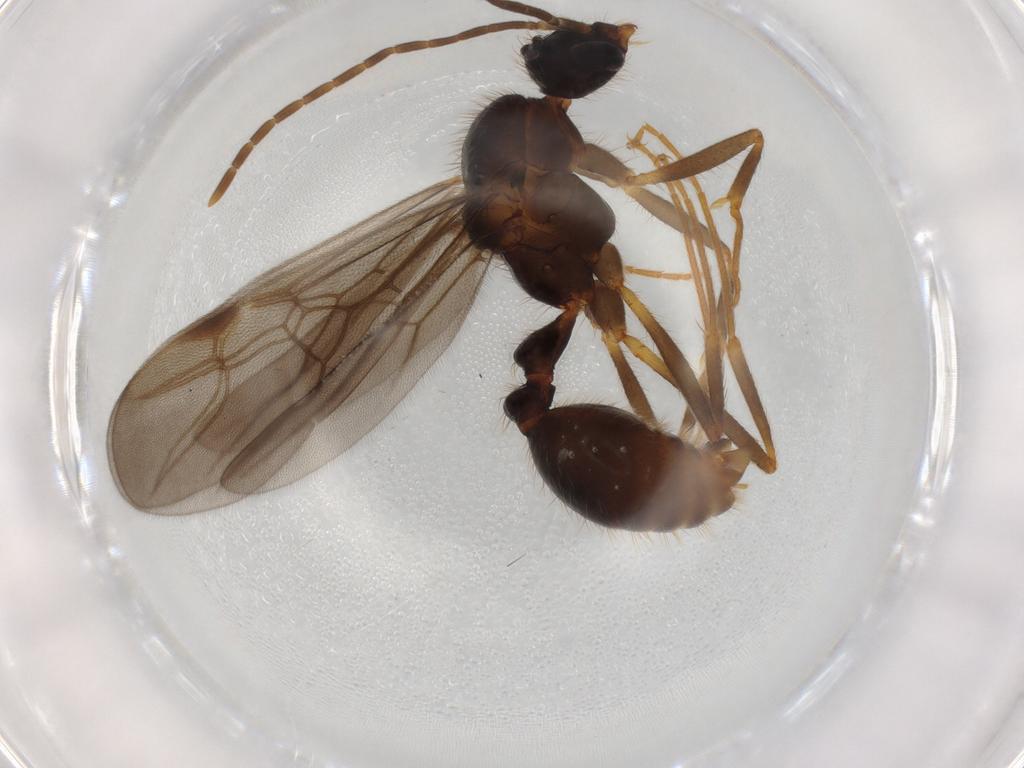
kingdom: Animalia
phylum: Arthropoda
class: Insecta
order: Hymenoptera
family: Formicidae
